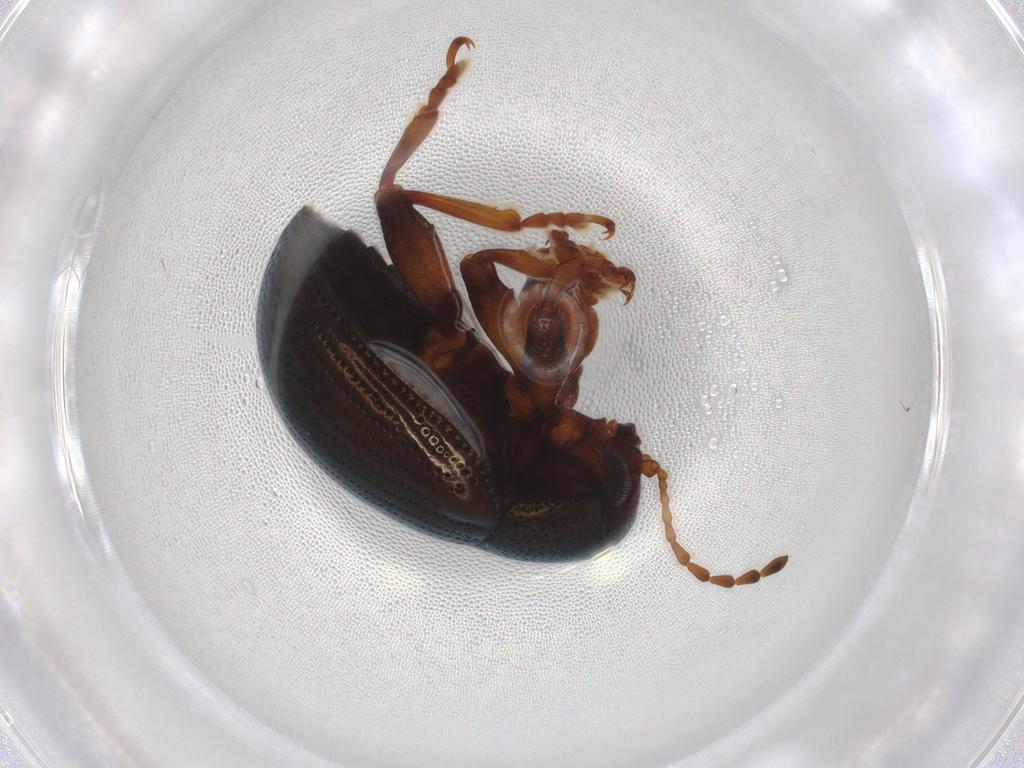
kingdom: Animalia
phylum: Arthropoda
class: Insecta
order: Coleoptera
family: Chrysomelidae
